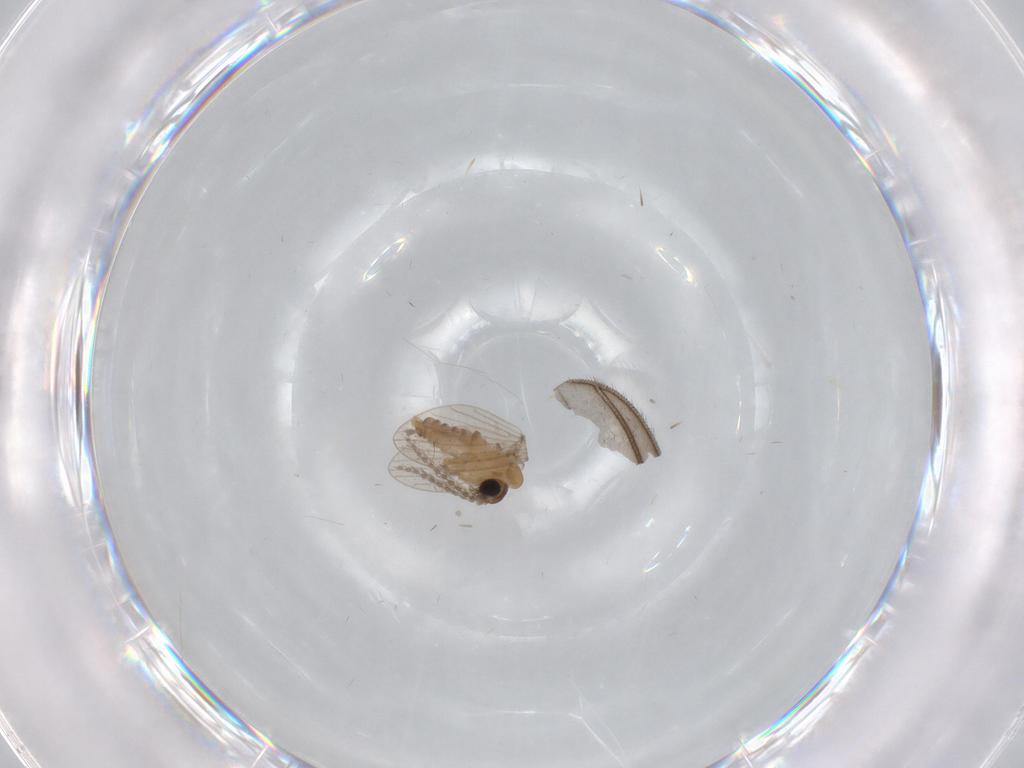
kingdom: Animalia
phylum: Arthropoda
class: Insecta
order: Diptera
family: Psychodidae
